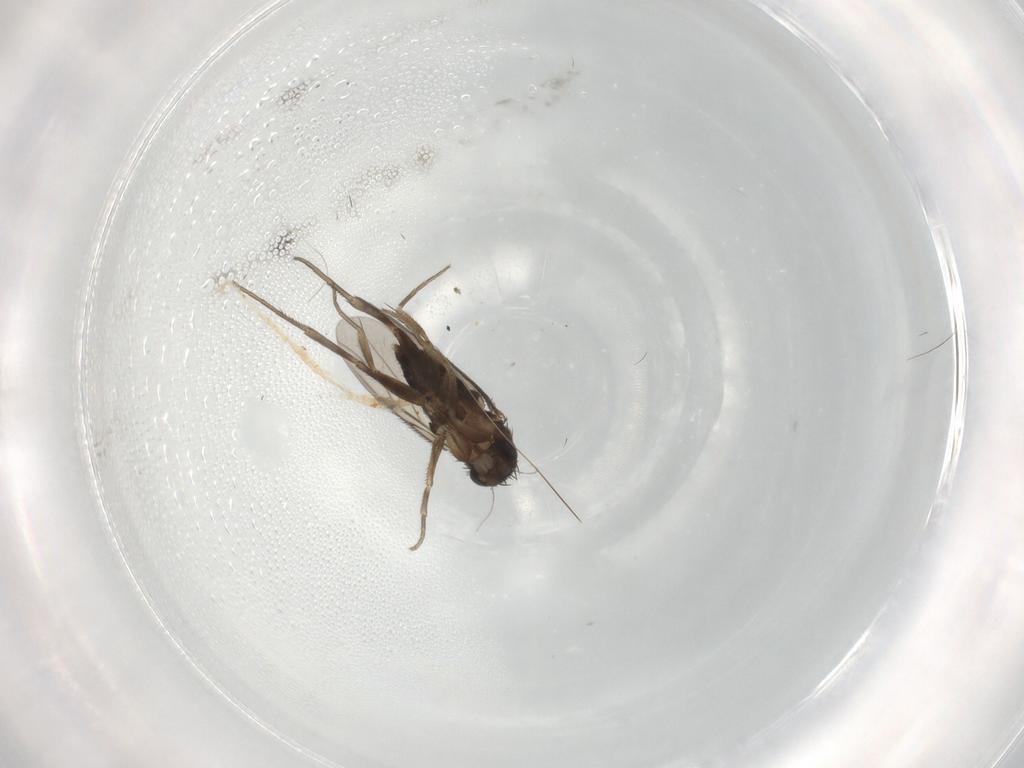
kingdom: Animalia
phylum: Arthropoda
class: Insecta
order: Diptera
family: Phoridae
